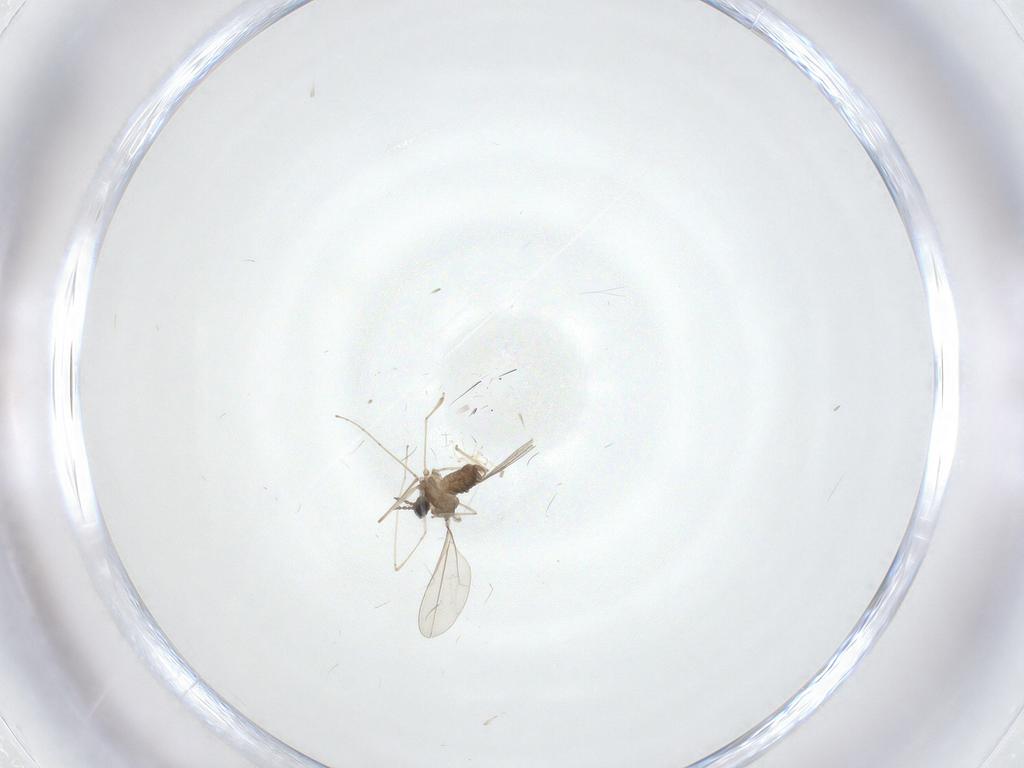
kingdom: Animalia
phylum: Arthropoda
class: Insecta
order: Diptera
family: Cecidomyiidae
